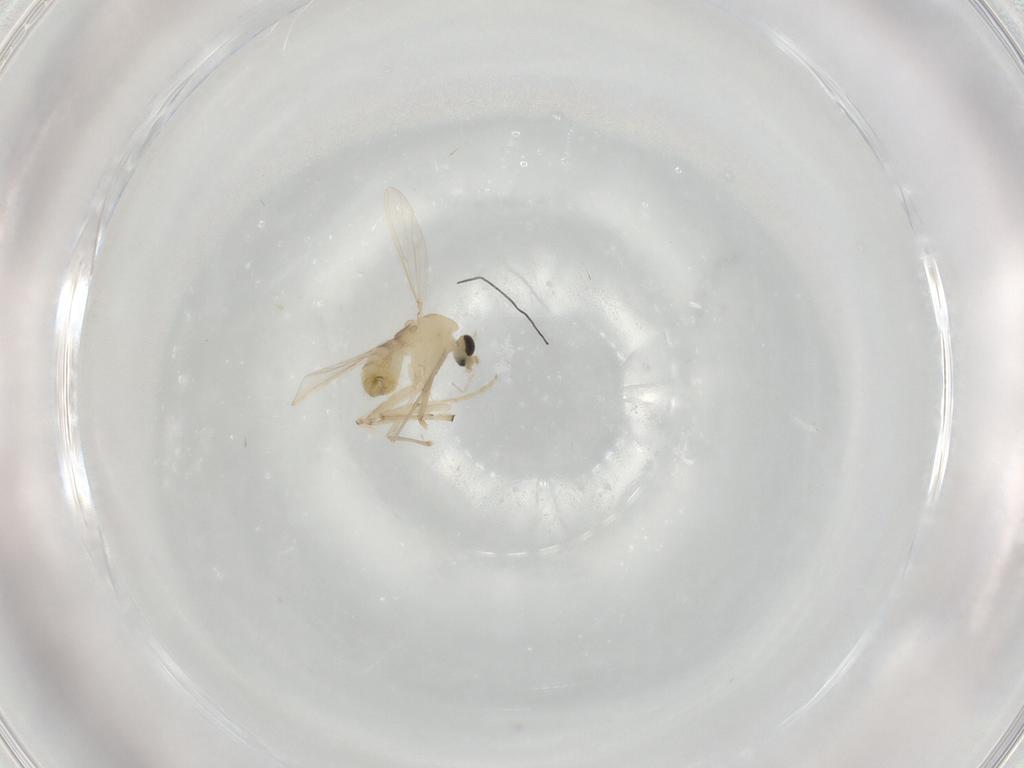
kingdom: Animalia
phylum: Arthropoda
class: Insecta
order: Diptera
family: Chironomidae
